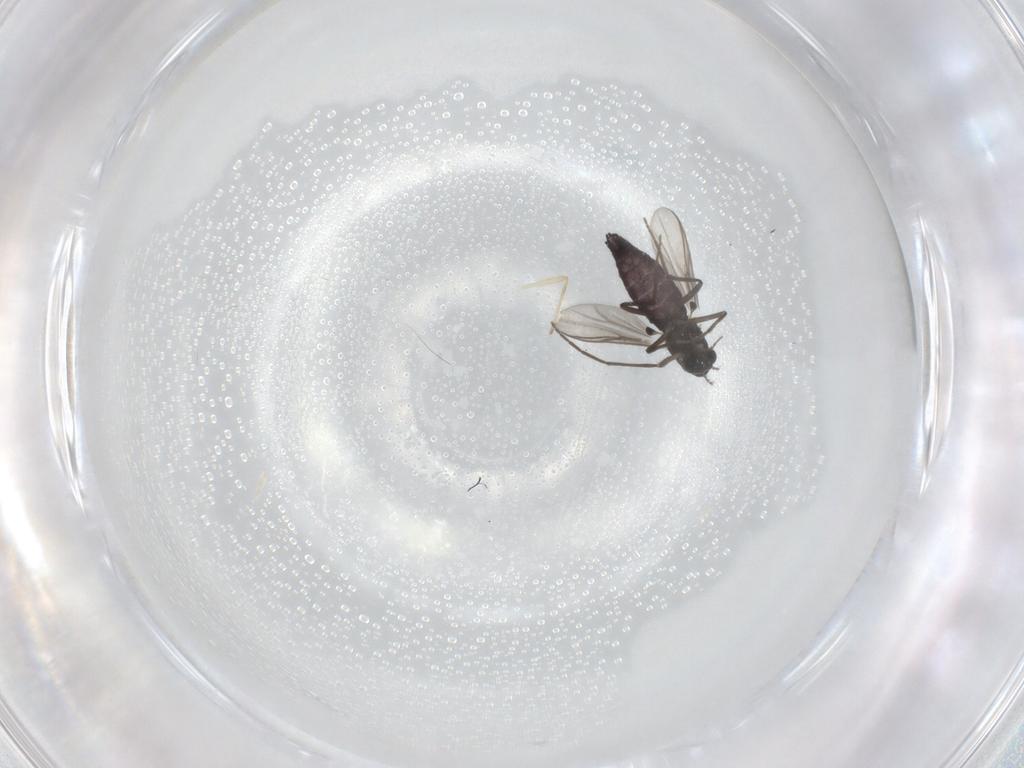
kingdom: Animalia
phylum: Arthropoda
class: Insecta
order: Diptera
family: Chironomidae
